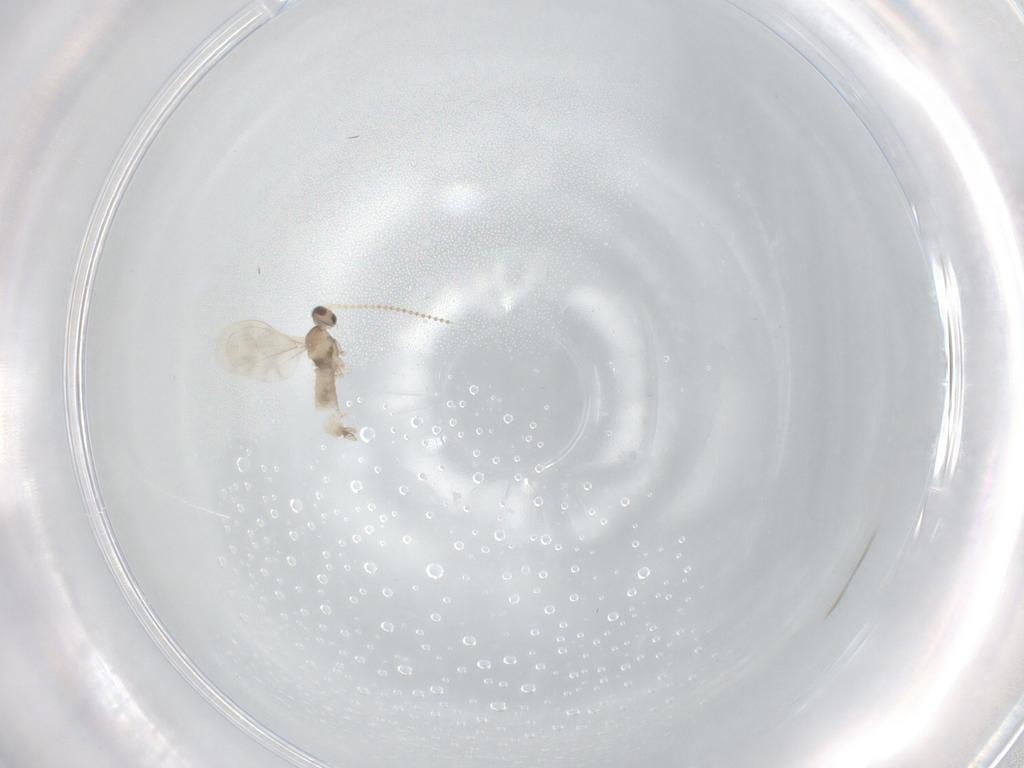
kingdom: Animalia
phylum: Arthropoda
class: Insecta
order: Diptera
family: Cecidomyiidae
